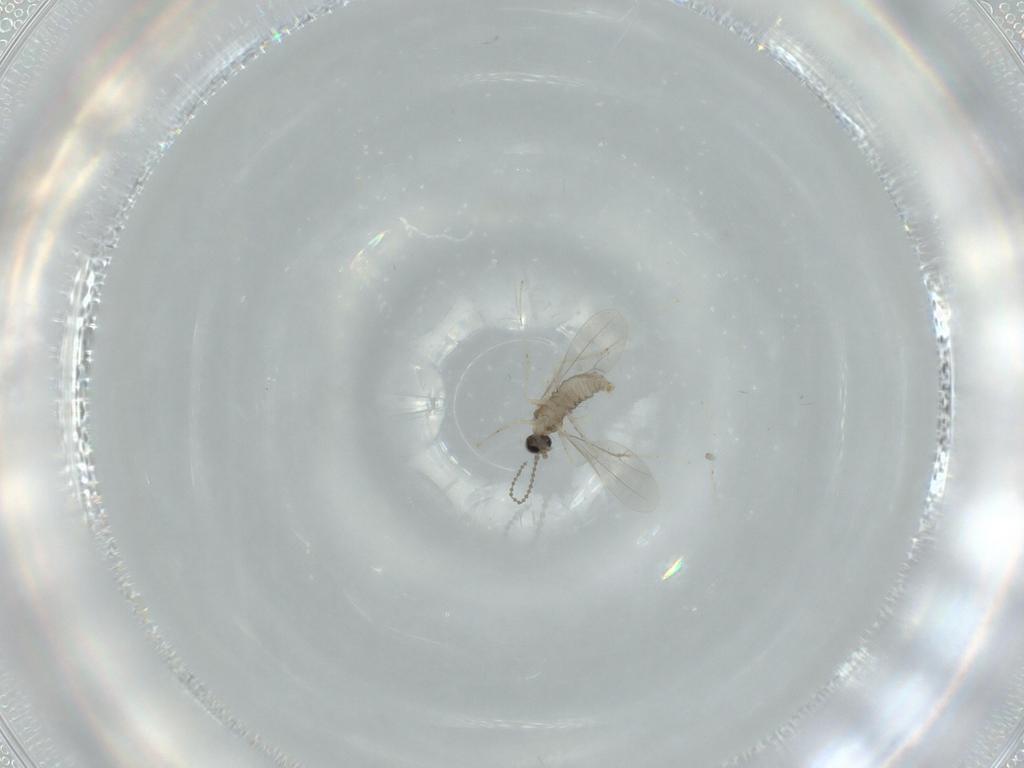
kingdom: Animalia
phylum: Arthropoda
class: Insecta
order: Diptera
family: Cecidomyiidae
